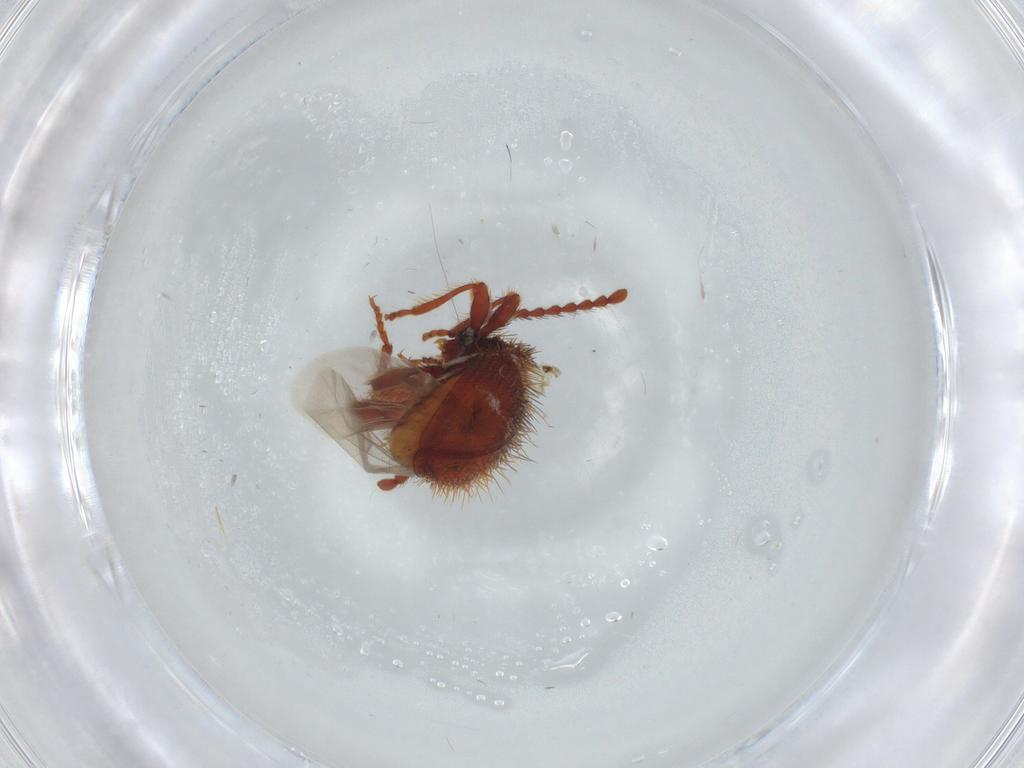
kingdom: Animalia
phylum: Arthropoda
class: Insecta
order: Coleoptera
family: Ptinidae
